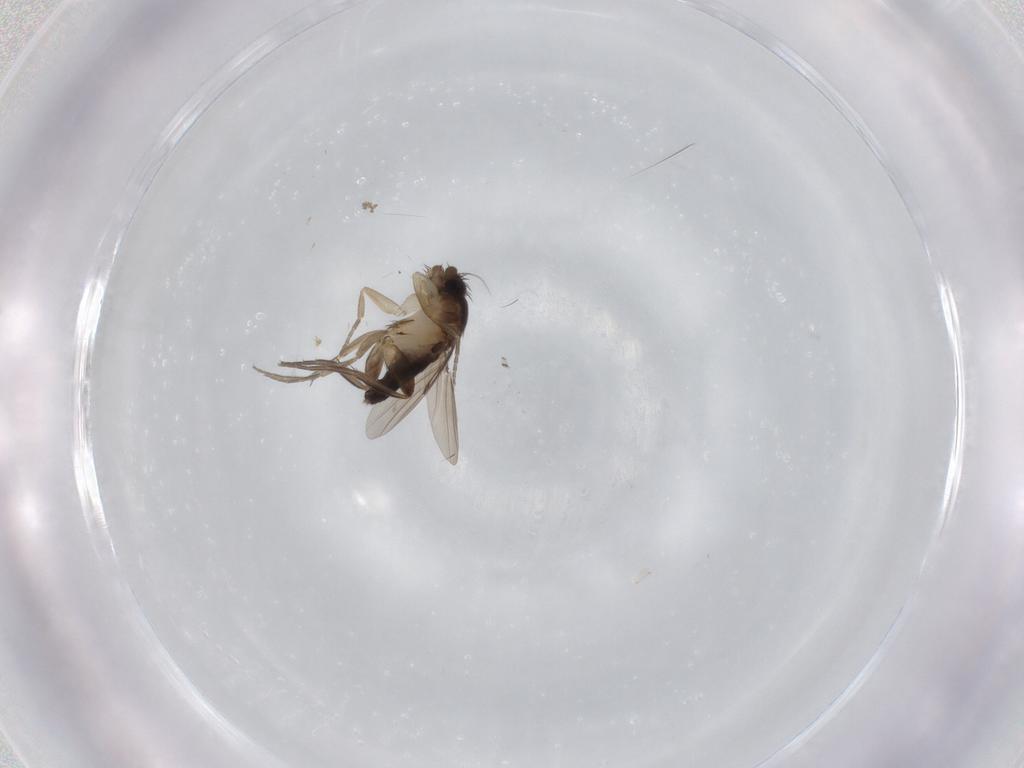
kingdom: Animalia
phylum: Arthropoda
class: Insecta
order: Diptera
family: Phoridae
